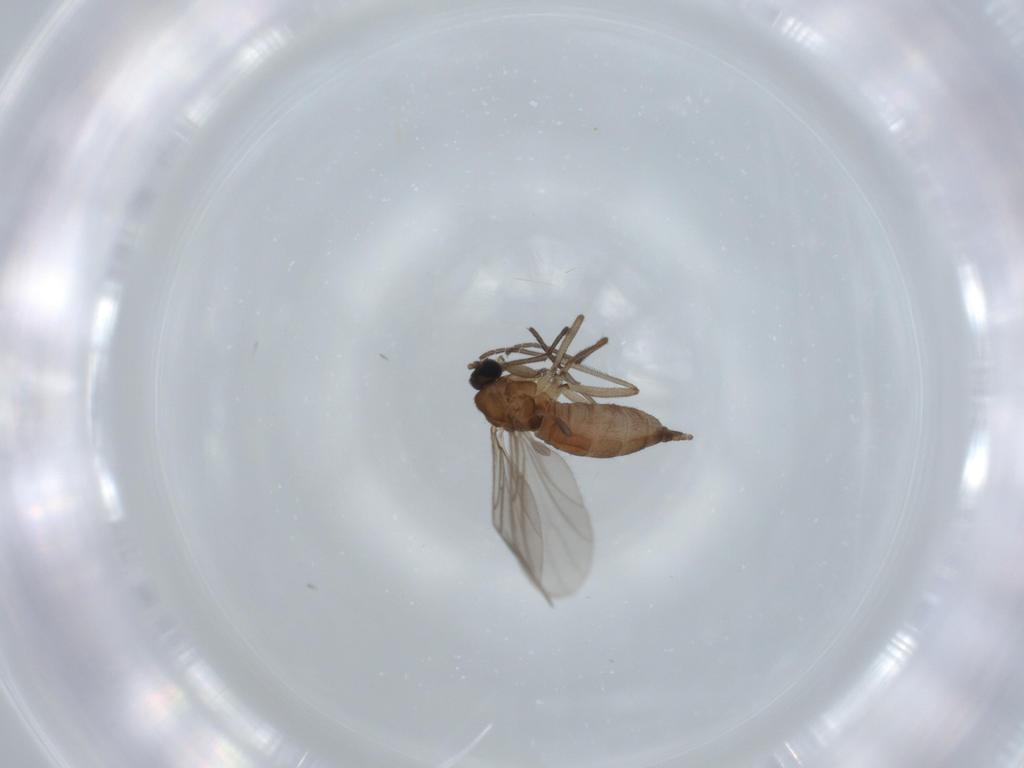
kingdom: Animalia
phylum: Arthropoda
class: Insecta
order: Diptera
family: Sciaridae
